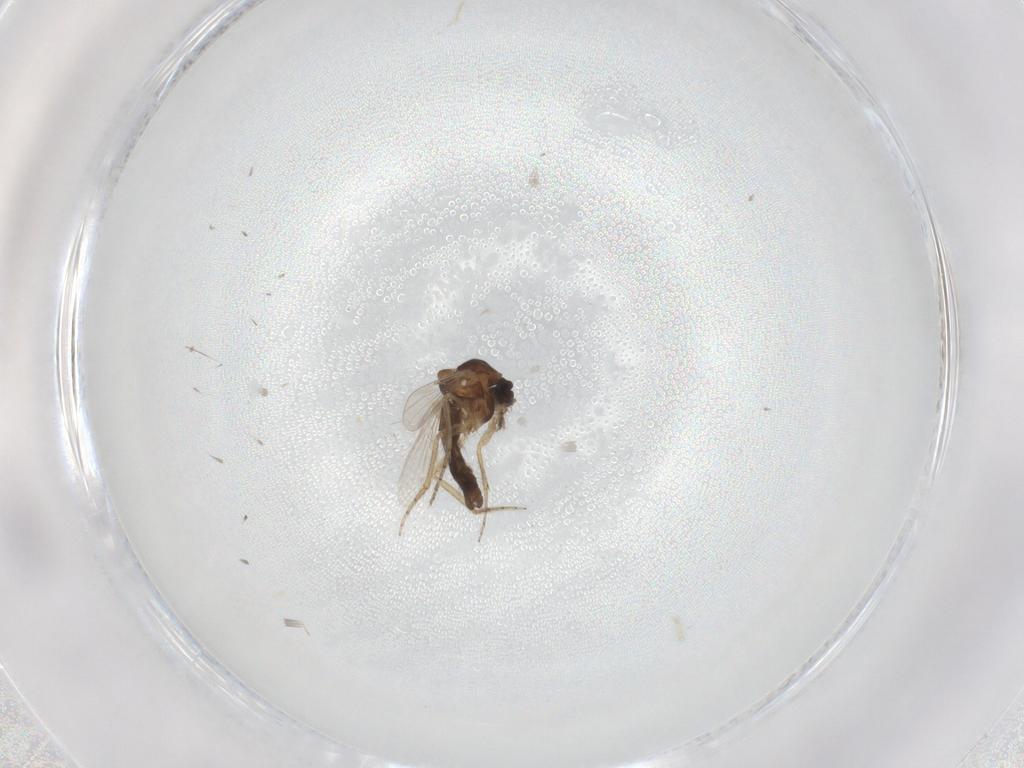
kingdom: Animalia
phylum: Arthropoda
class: Insecta
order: Diptera
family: Ceratopogonidae
